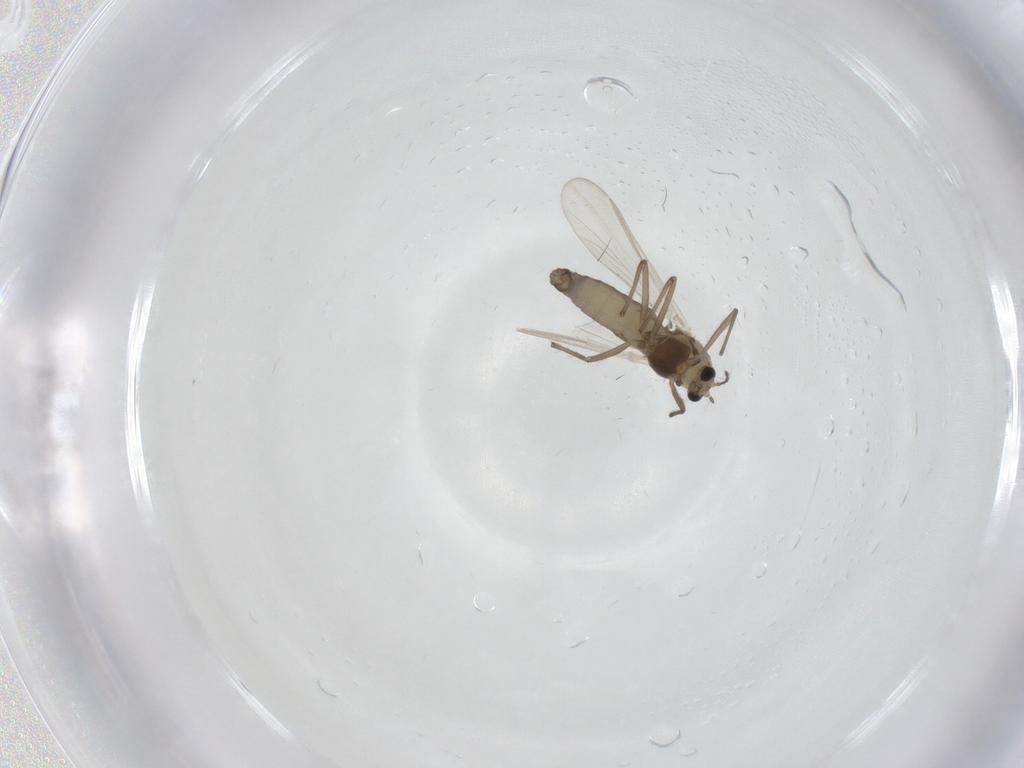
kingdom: Animalia
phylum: Arthropoda
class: Insecta
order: Diptera
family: Chironomidae
